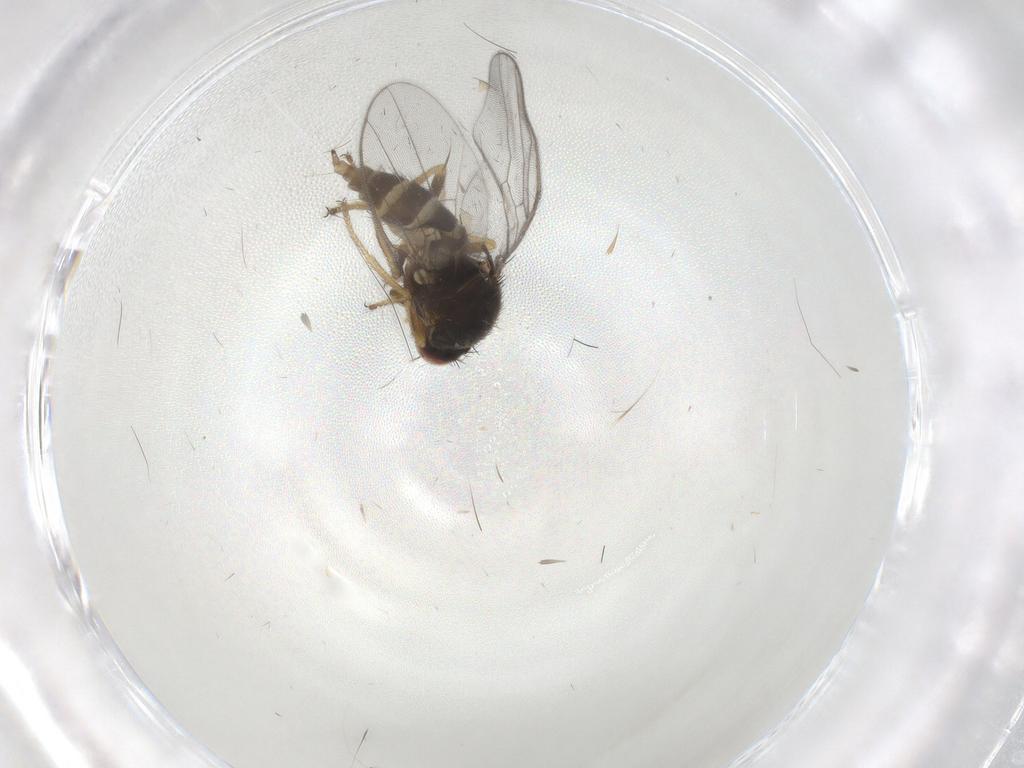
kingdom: Animalia
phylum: Arthropoda
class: Insecta
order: Diptera
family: Chloropidae
